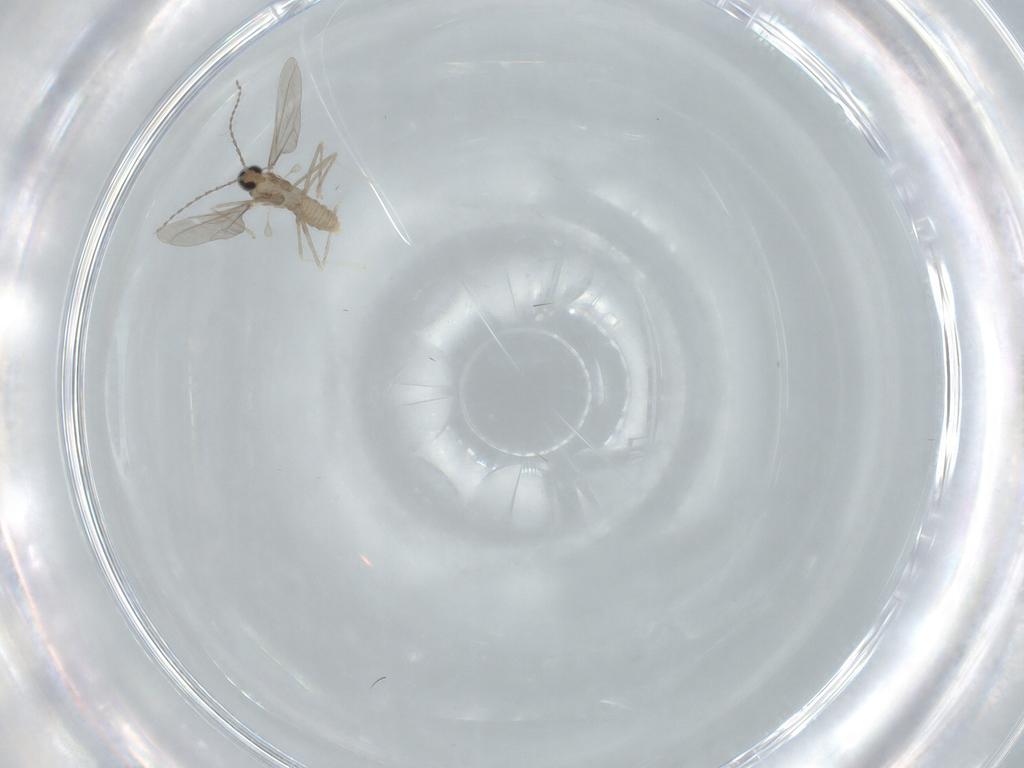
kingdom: Animalia
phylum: Arthropoda
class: Insecta
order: Diptera
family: Cecidomyiidae
